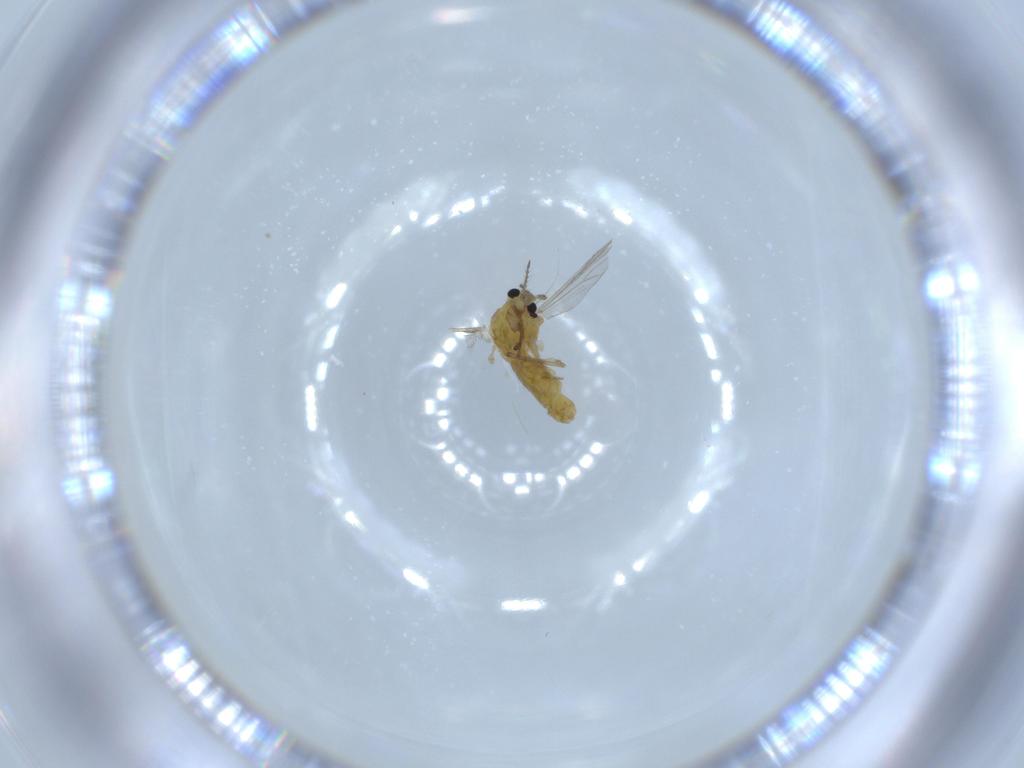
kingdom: Animalia
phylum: Arthropoda
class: Insecta
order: Diptera
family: Chironomidae
